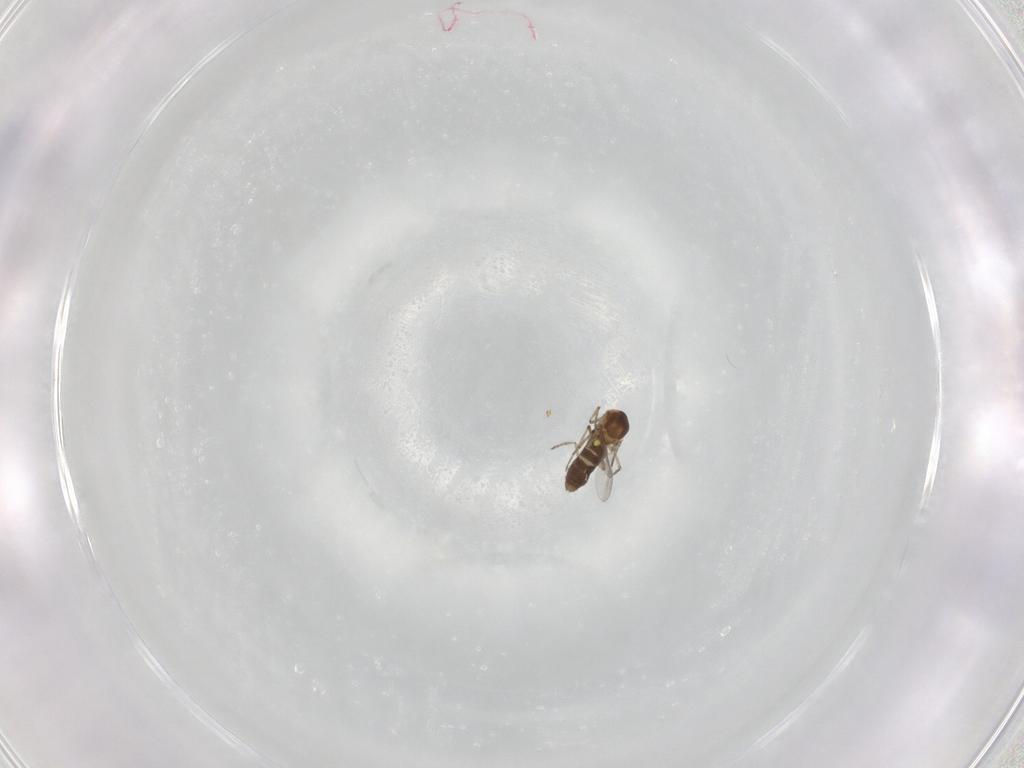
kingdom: Animalia
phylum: Arthropoda
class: Insecta
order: Diptera
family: Ceratopogonidae
